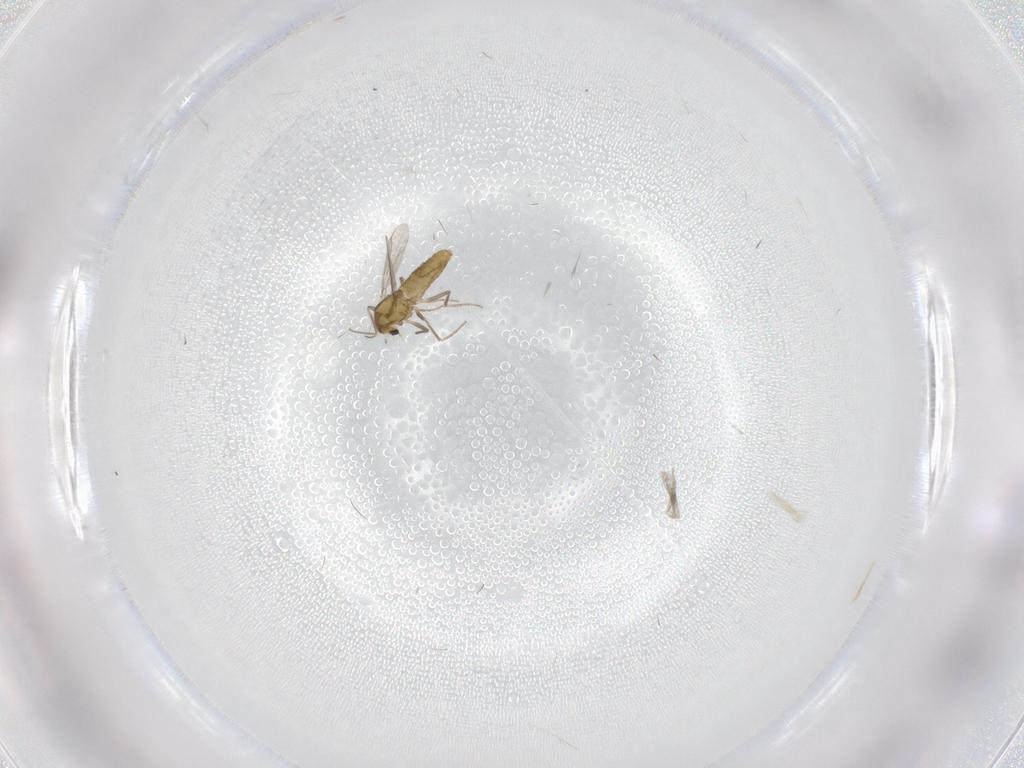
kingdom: Animalia
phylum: Arthropoda
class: Insecta
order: Diptera
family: Chironomidae
